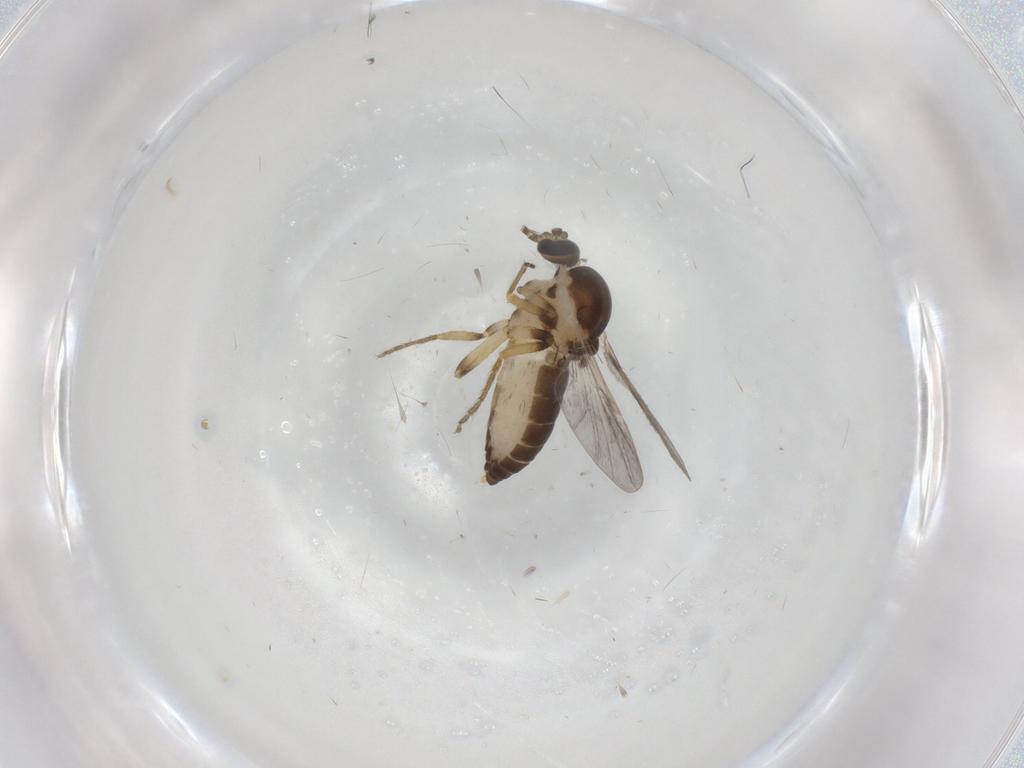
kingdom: Animalia
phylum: Arthropoda
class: Insecta
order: Diptera
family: Ceratopogonidae
